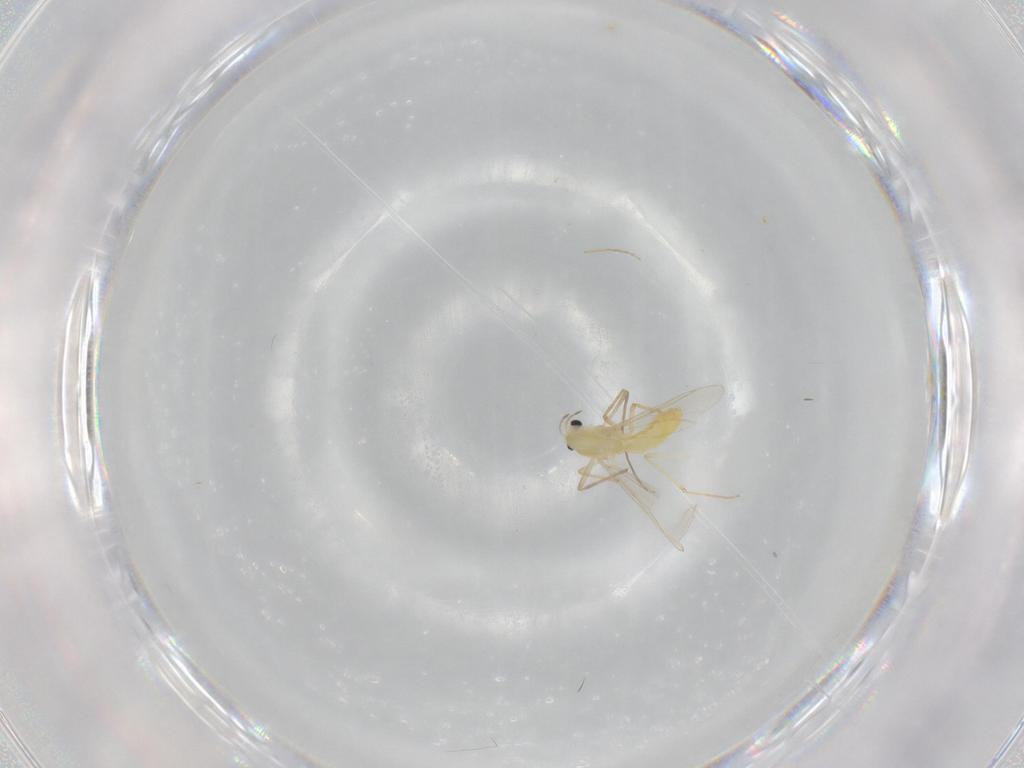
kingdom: Animalia
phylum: Arthropoda
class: Insecta
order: Diptera
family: Chironomidae
